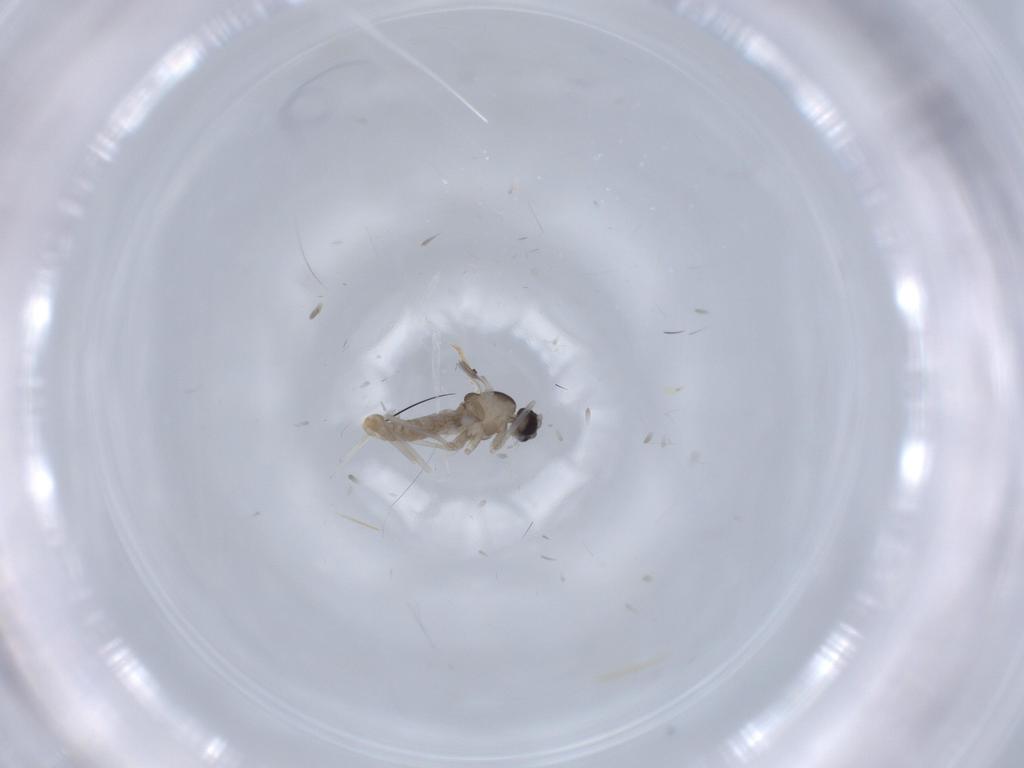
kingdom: Animalia
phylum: Arthropoda
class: Insecta
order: Diptera
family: Cecidomyiidae
